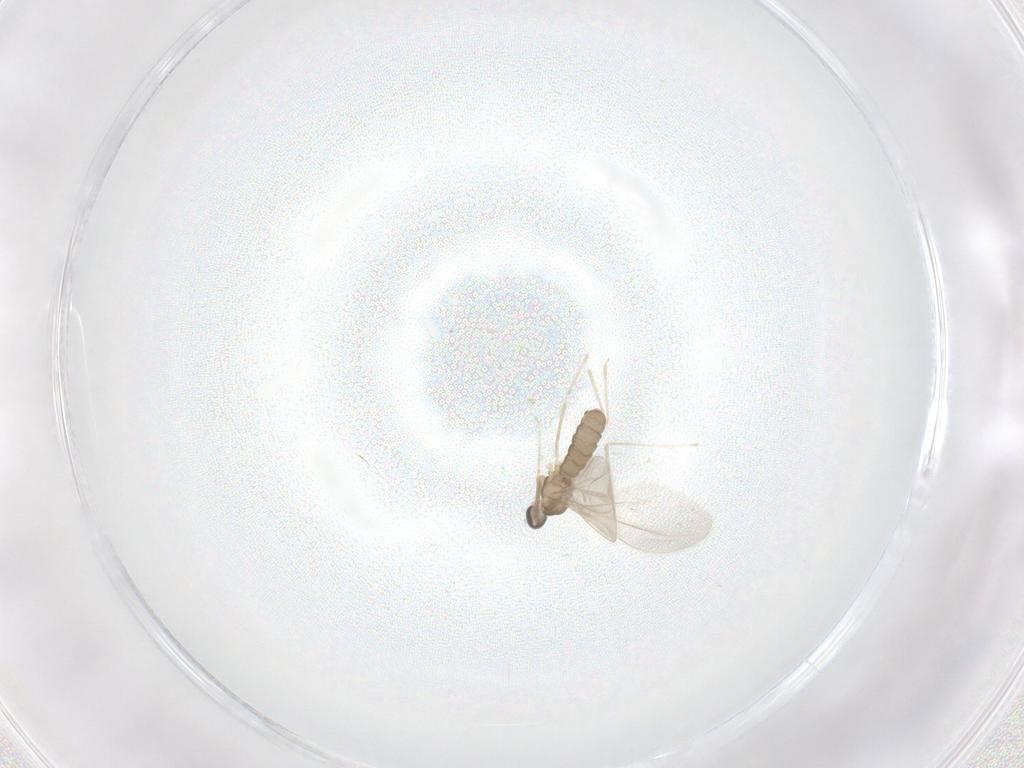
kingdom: Animalia
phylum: Arthropoda
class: Insecta
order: Diptera
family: Cecidomyiidae
